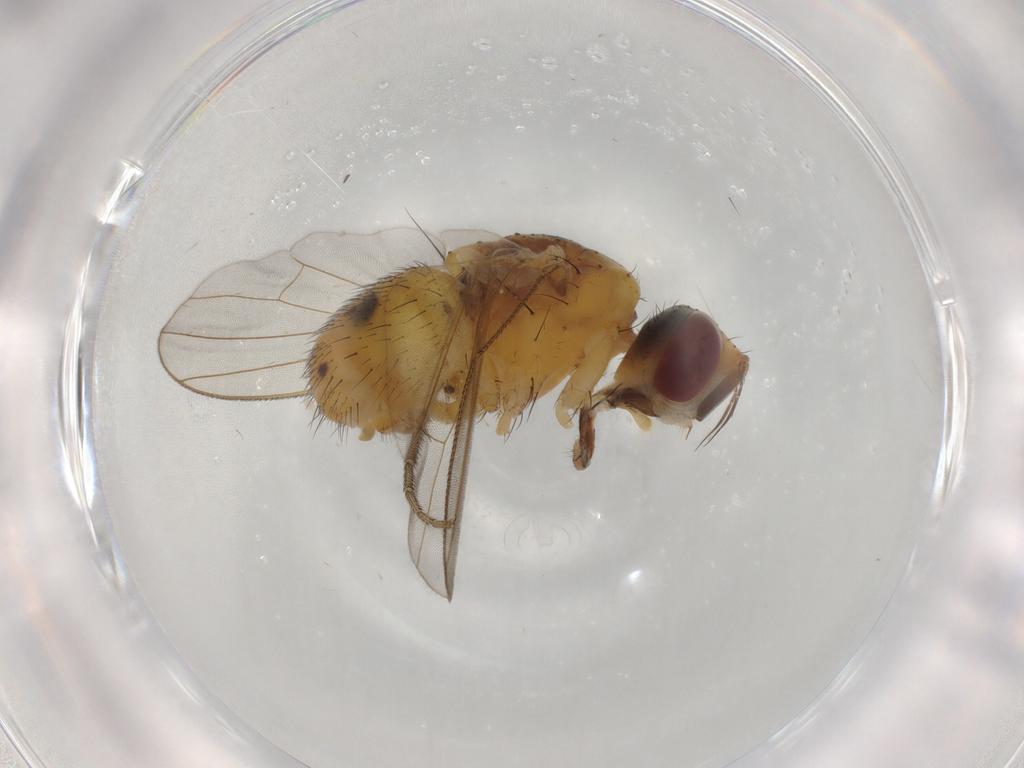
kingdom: Animalia
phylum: Arthropoda
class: Insecta
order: Diptera
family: Muscidae
